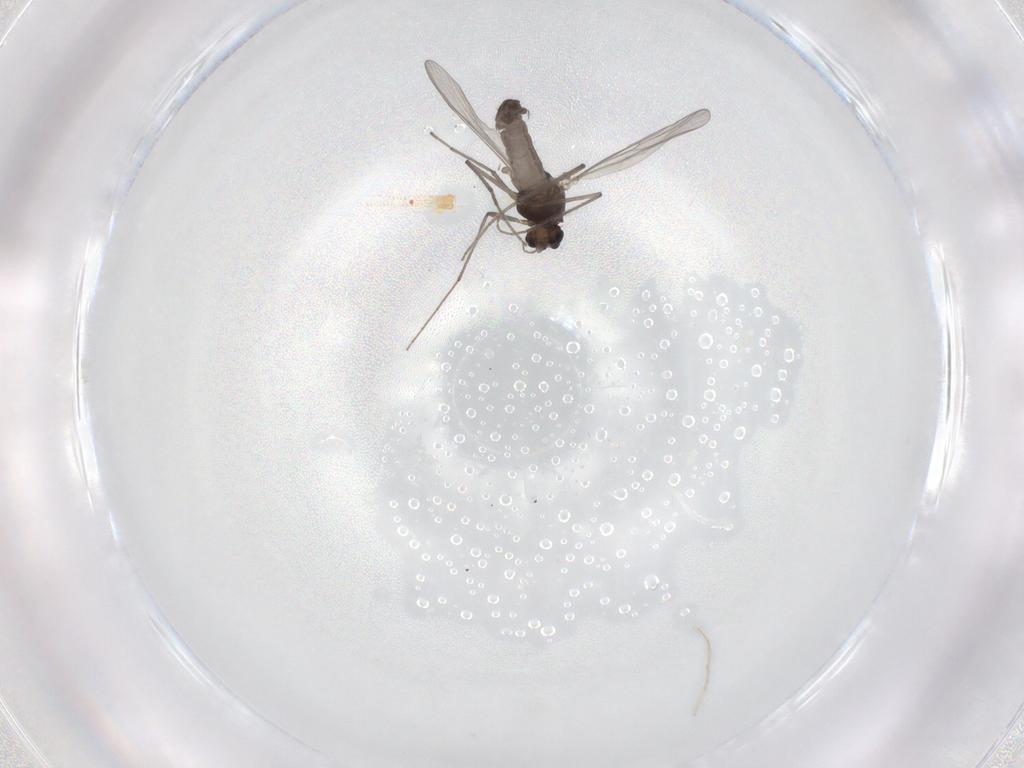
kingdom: Animalia
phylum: Arthropoda
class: Insecta
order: Diptera
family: Chironomidae
